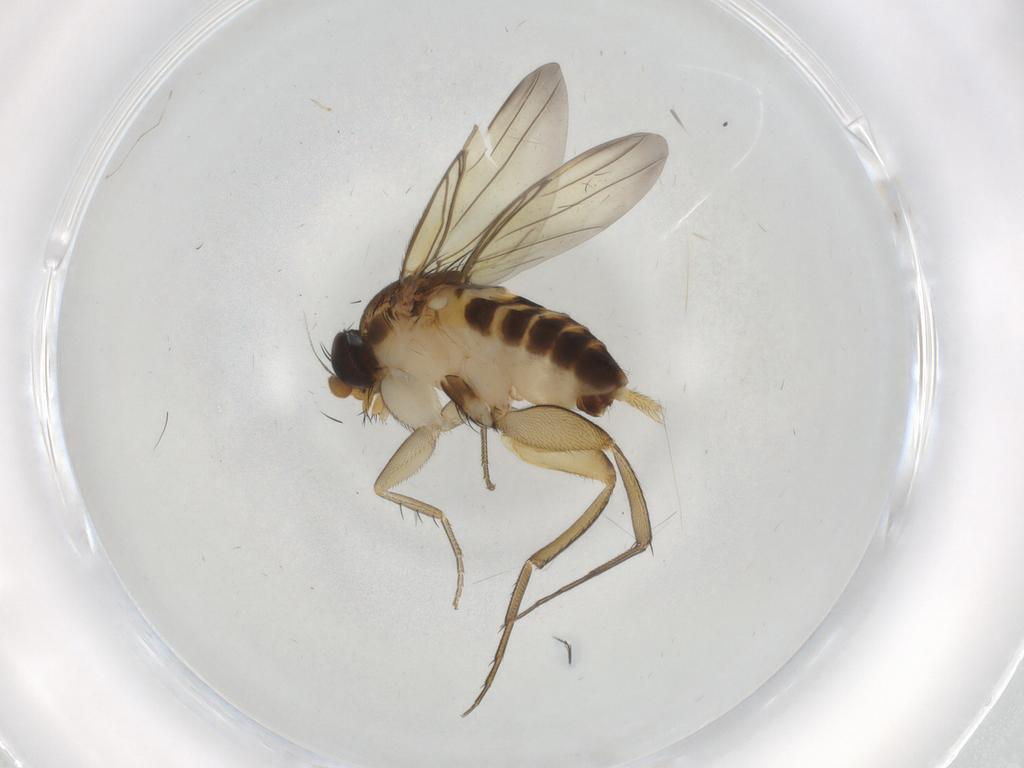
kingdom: Animalia
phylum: Arthropoda
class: Insecta
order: Diptera
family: Phoridae
